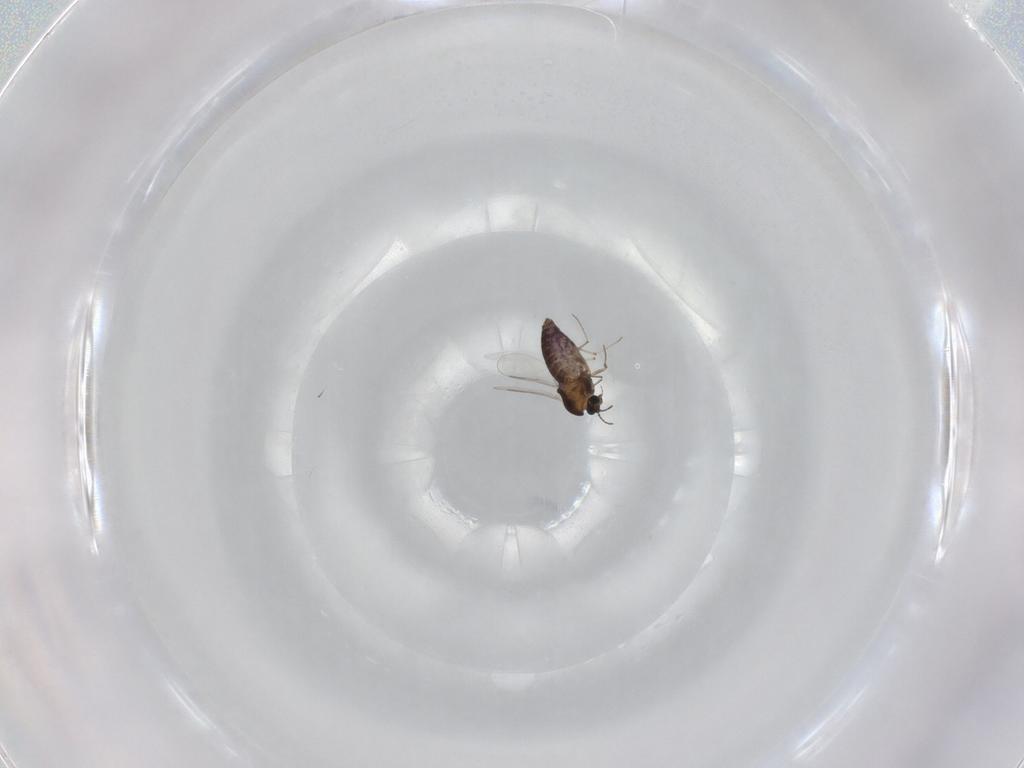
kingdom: Animalia
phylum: Arthropoda
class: Insecta
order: Diptera
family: Chironomidae
